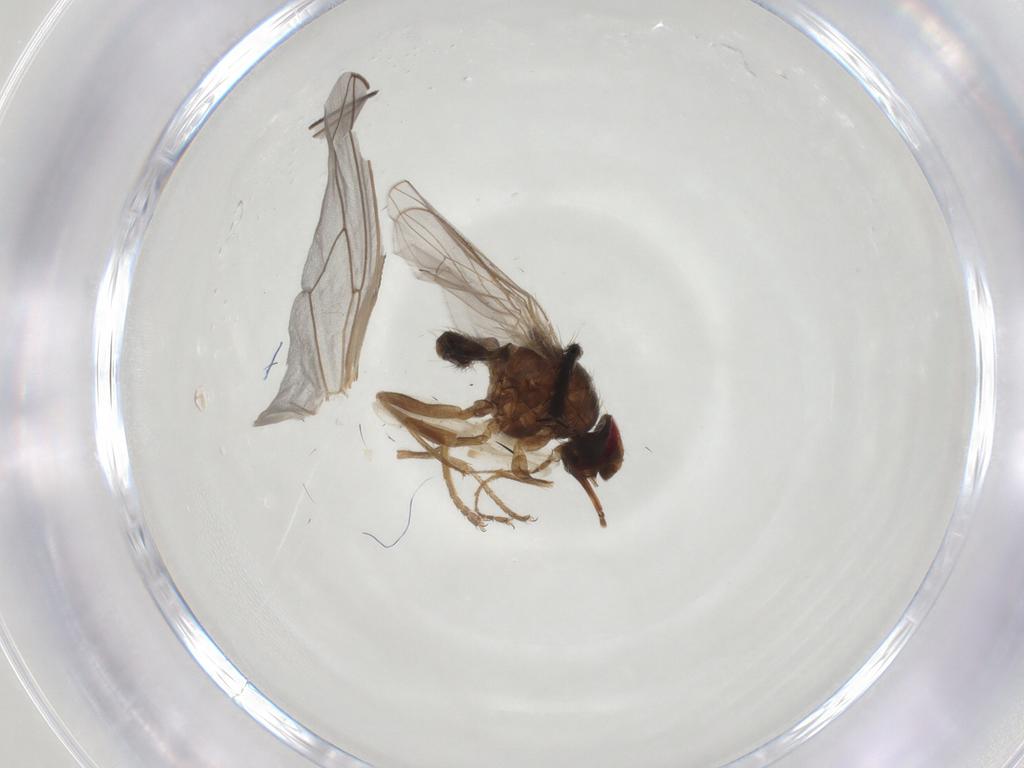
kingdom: Animalia
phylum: Arthropoda
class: Insecta
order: Diptera
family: Muscidae
